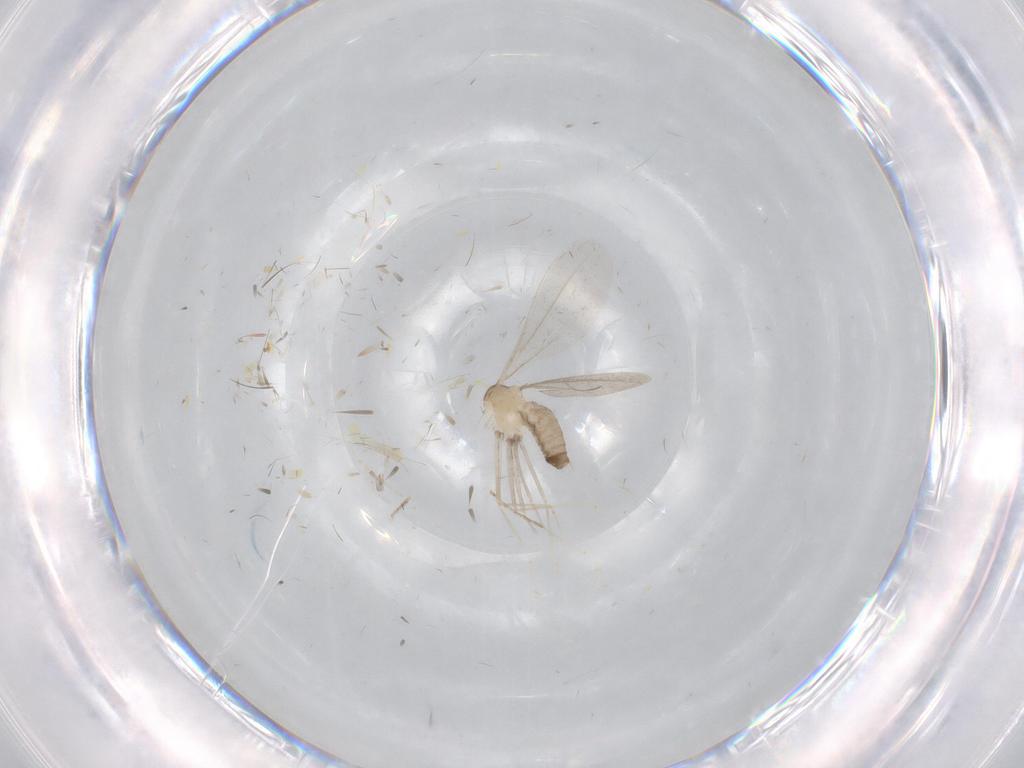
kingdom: Animalia
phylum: Arthropoda
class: Insecta
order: Diptera
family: Cecidomyiidae
